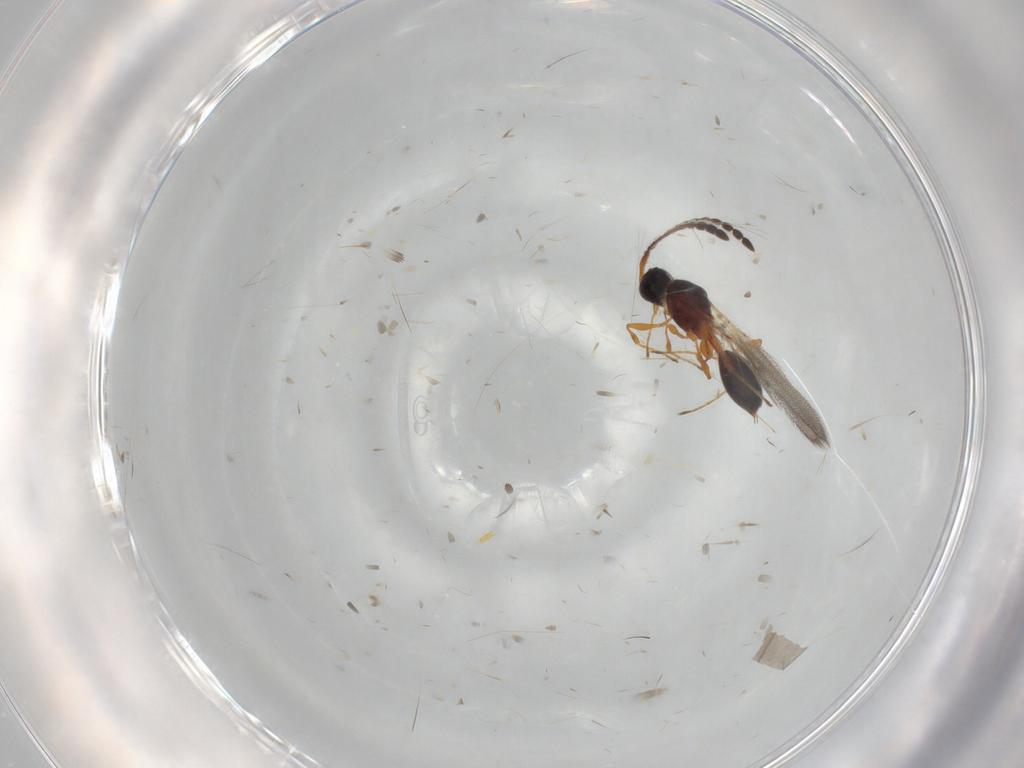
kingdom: Animalia
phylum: Arthropoda
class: Insecta
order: Hymenoptera
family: Diapriidae
